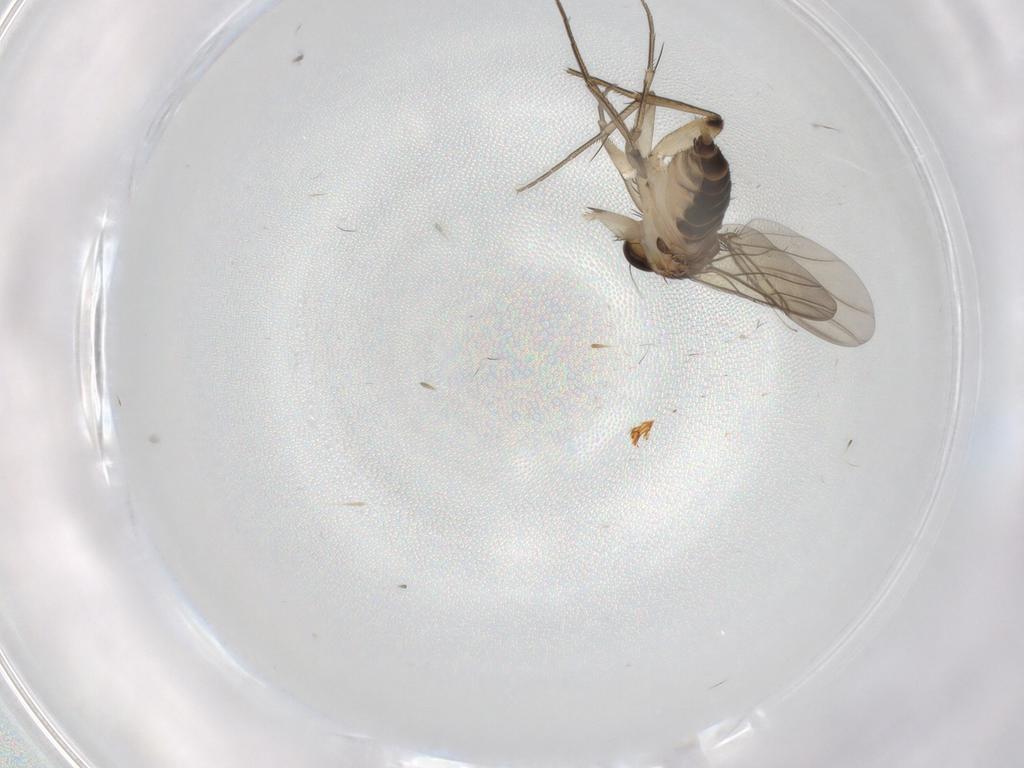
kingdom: Animalia
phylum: Arthropoda
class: Insecta
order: Diptera
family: Phoridae
